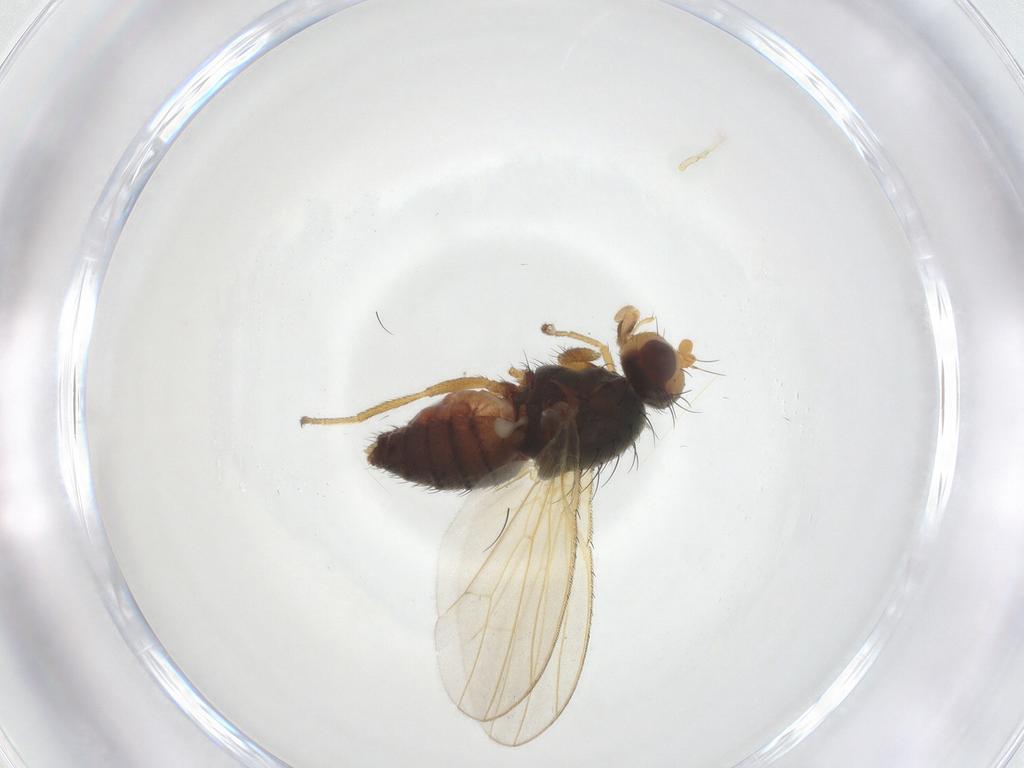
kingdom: Animalia
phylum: Arthropoda
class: Insecta
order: Diptera
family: Heleomyzidae
